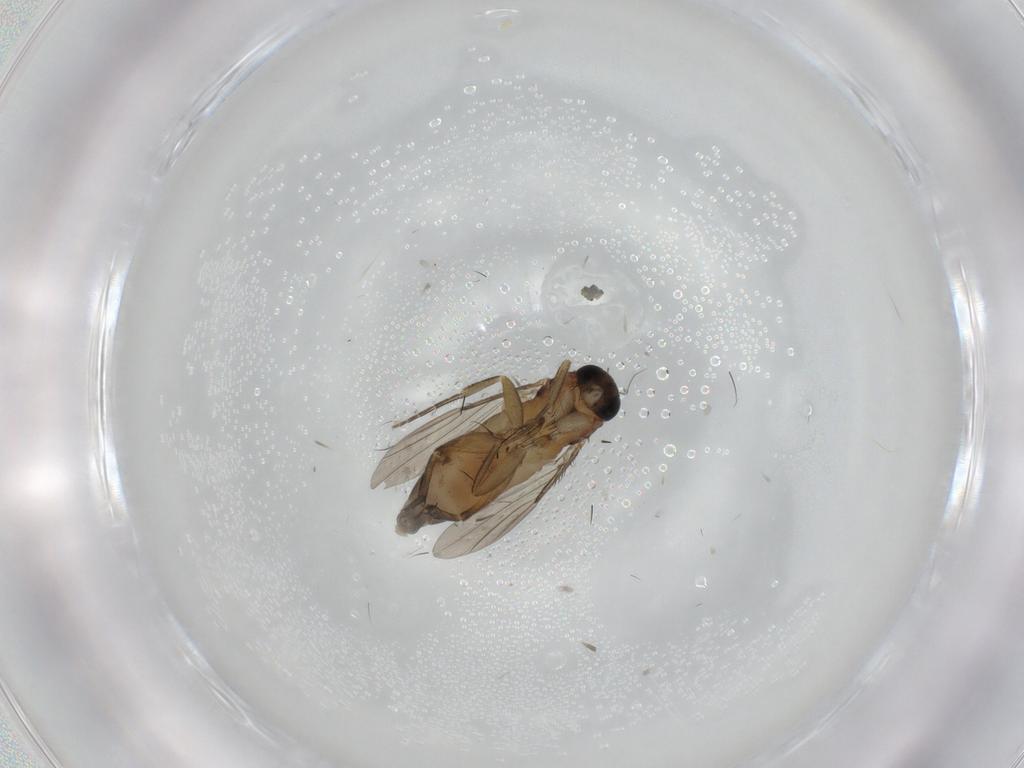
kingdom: Animalia
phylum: Arthropoda
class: Insecta
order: Diptera
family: Phoridae
